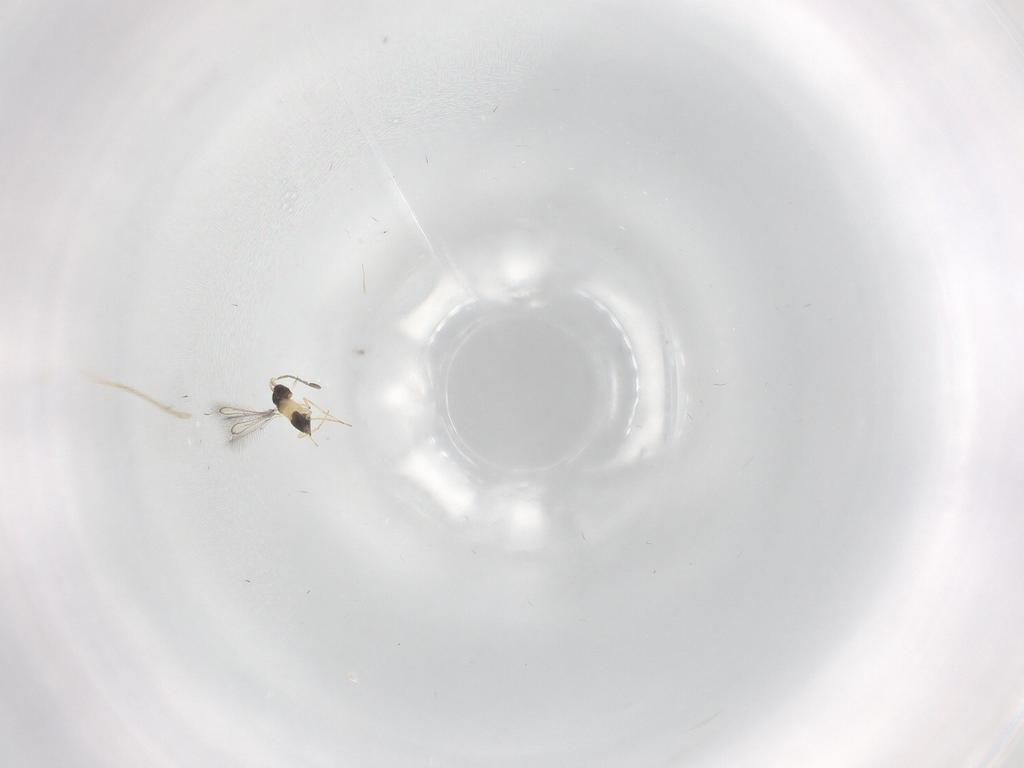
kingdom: Animalia
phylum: Arthropoda
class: Insecta
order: Hymenoptera
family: Mymaridae
